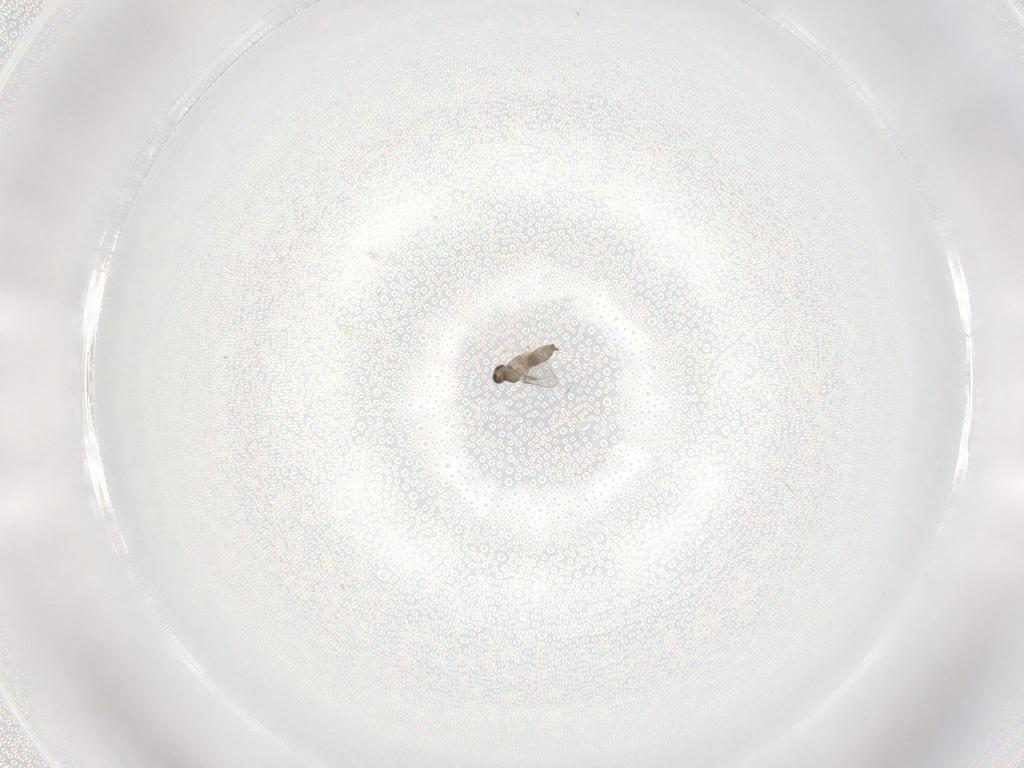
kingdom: Animalia
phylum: Arthropoda
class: Insecta
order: Diptera
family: Cecidomyiidae
